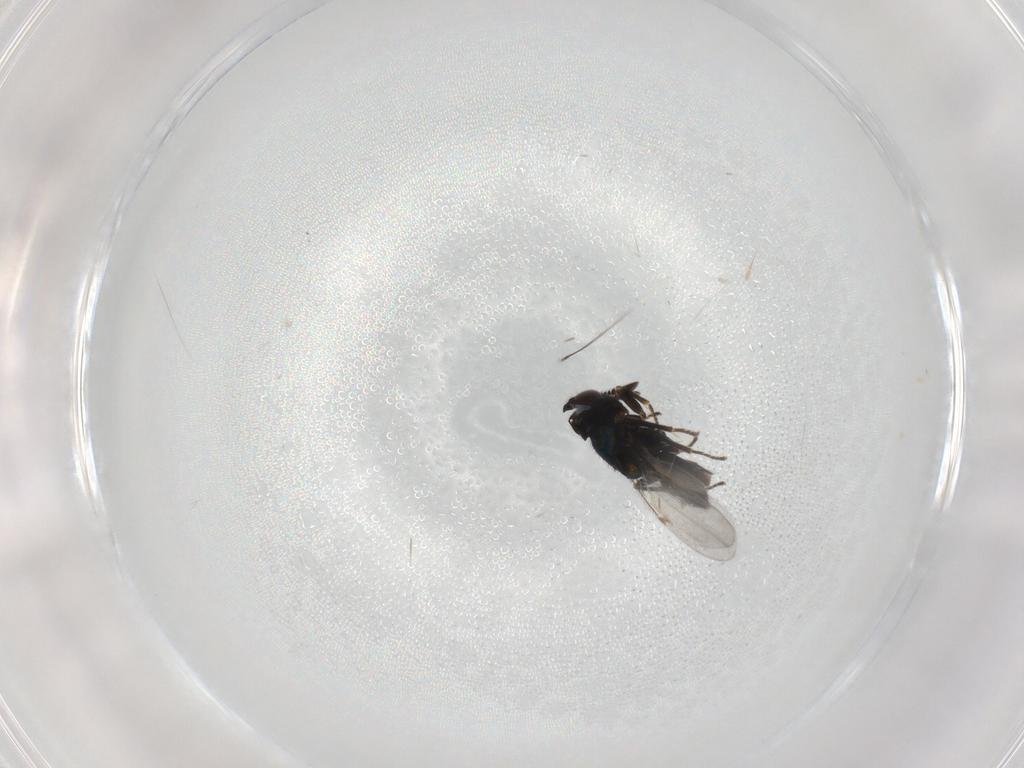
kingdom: Animalia
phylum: Arthropoda
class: Insecta
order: Hymenoptera
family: Encyrtidae
